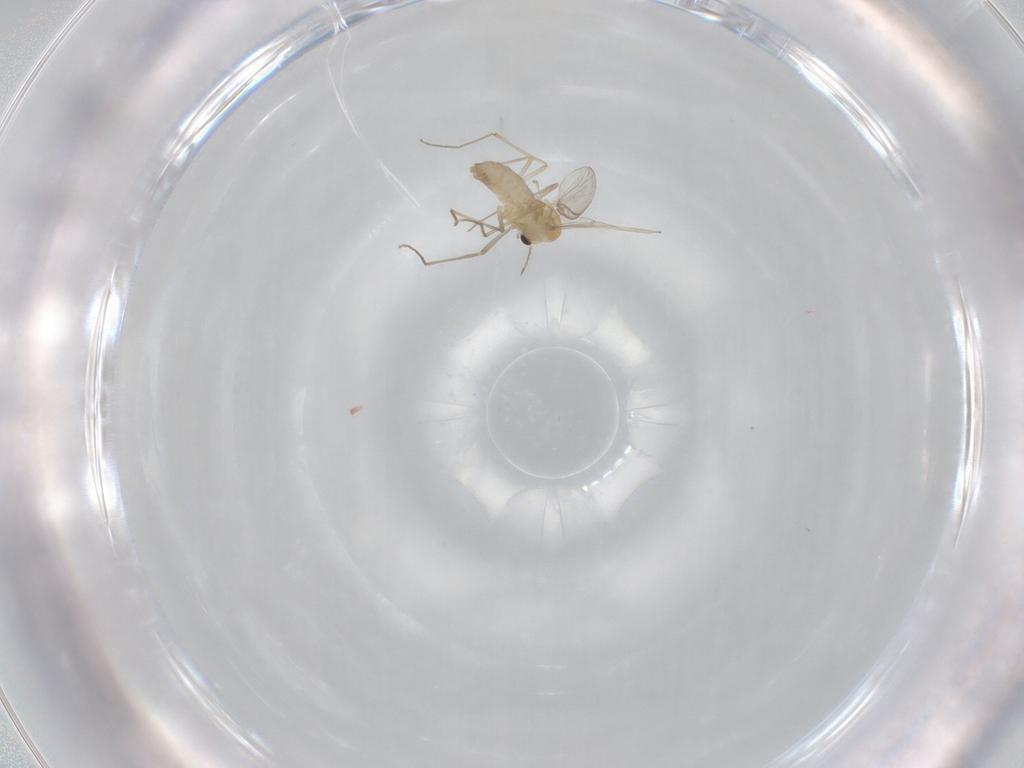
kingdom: Animalia
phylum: Arthropoda
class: Insecta
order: Diptera
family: Chironomidae
